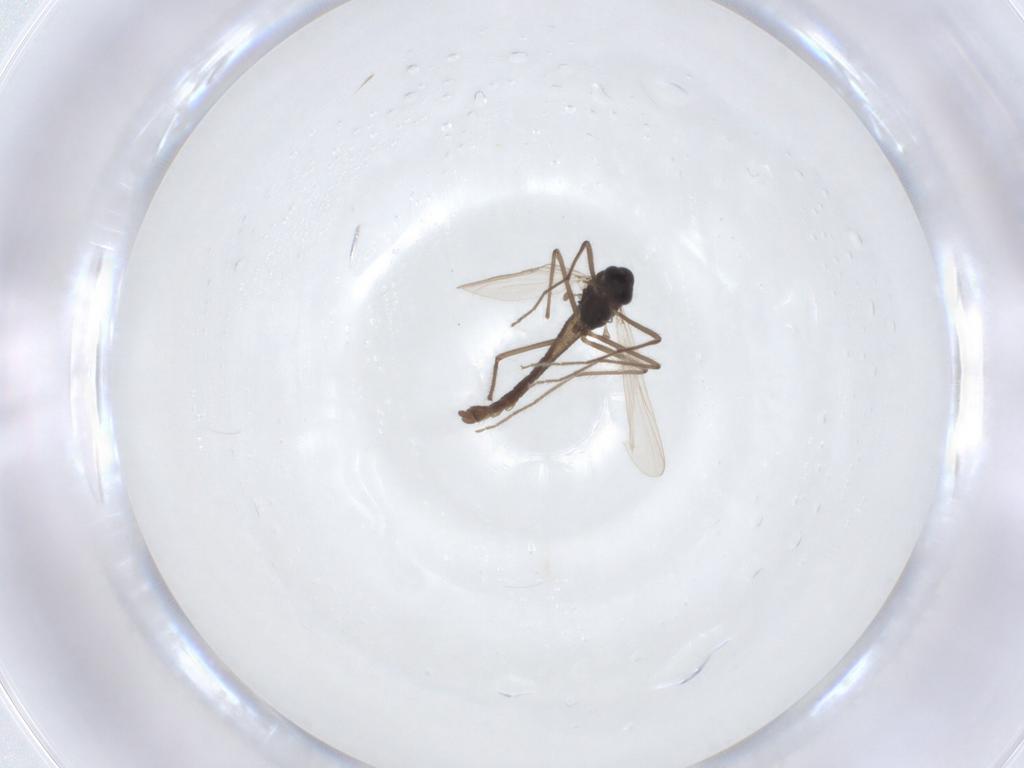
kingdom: Animalia
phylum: Arthropoda
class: Insecta
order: Diptera
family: Chironomidae
